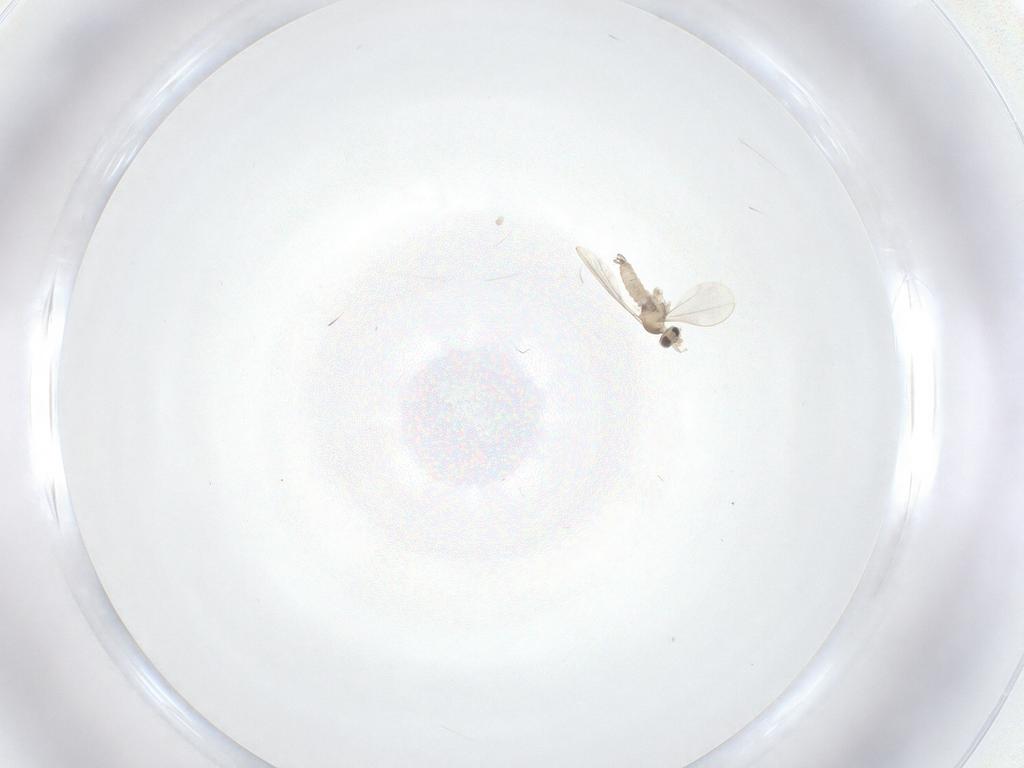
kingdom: Animalia
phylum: Arthropoda
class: Insecta
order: Diptera
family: Cecidomyiidae
